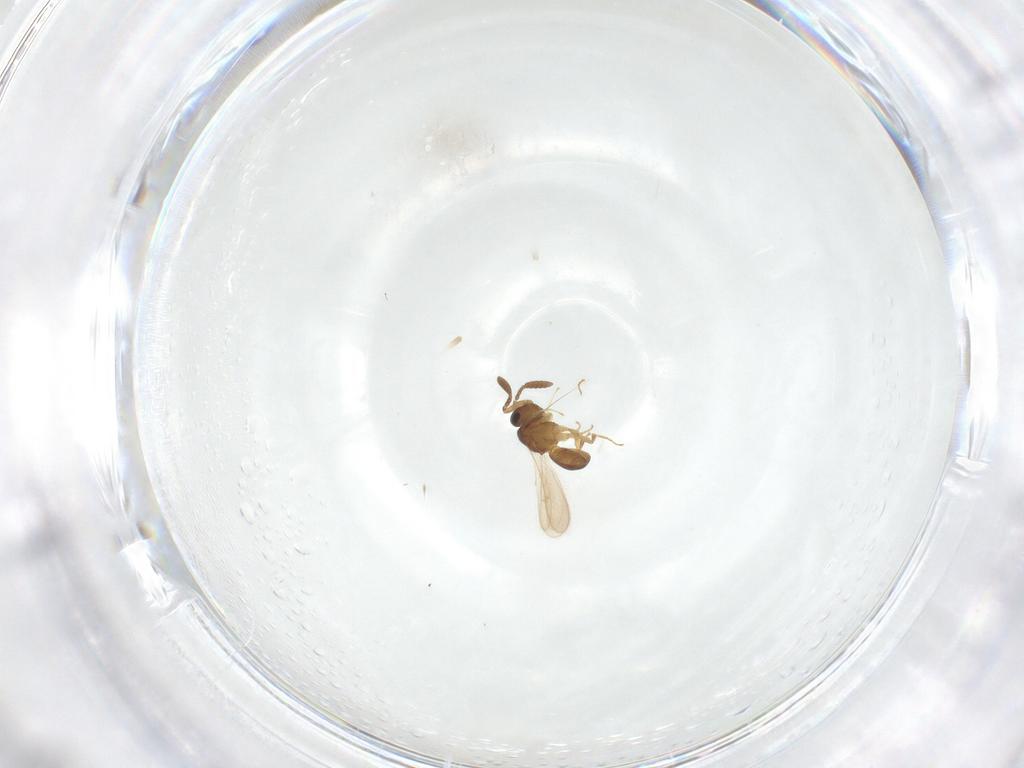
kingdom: Animalia
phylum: Arthropoda
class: Insecta
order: Hymenoptera
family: Scelionidae
